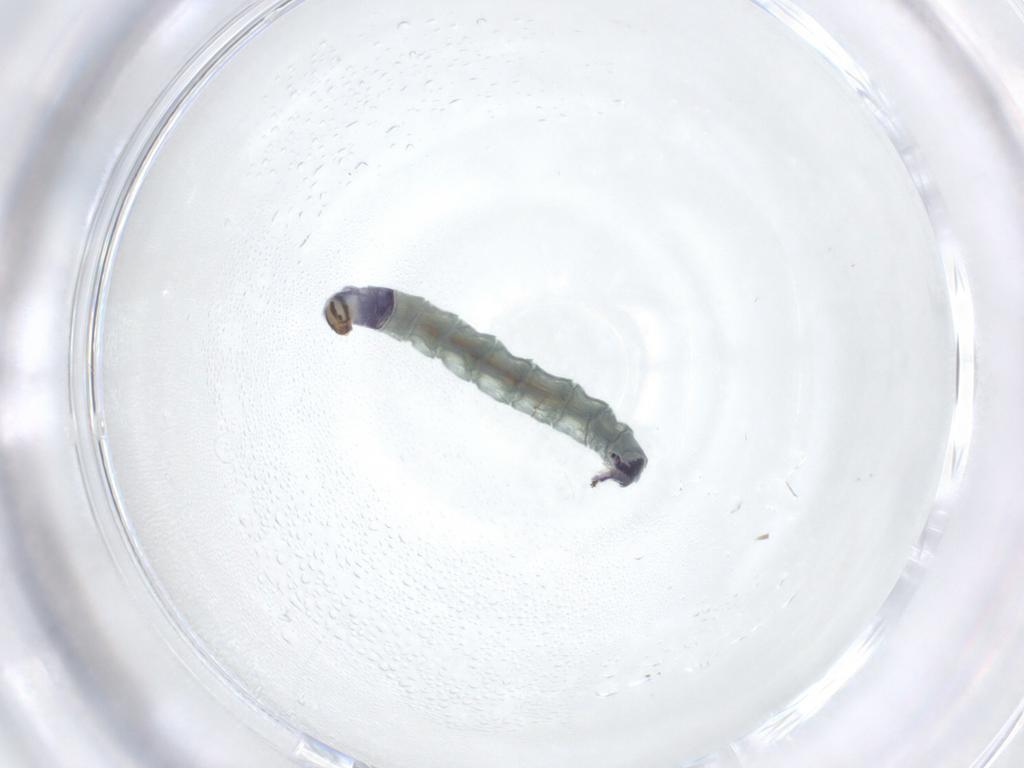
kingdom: Animalia
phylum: Arthropoda
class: Insecta
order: Diptera
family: Chironomidae
